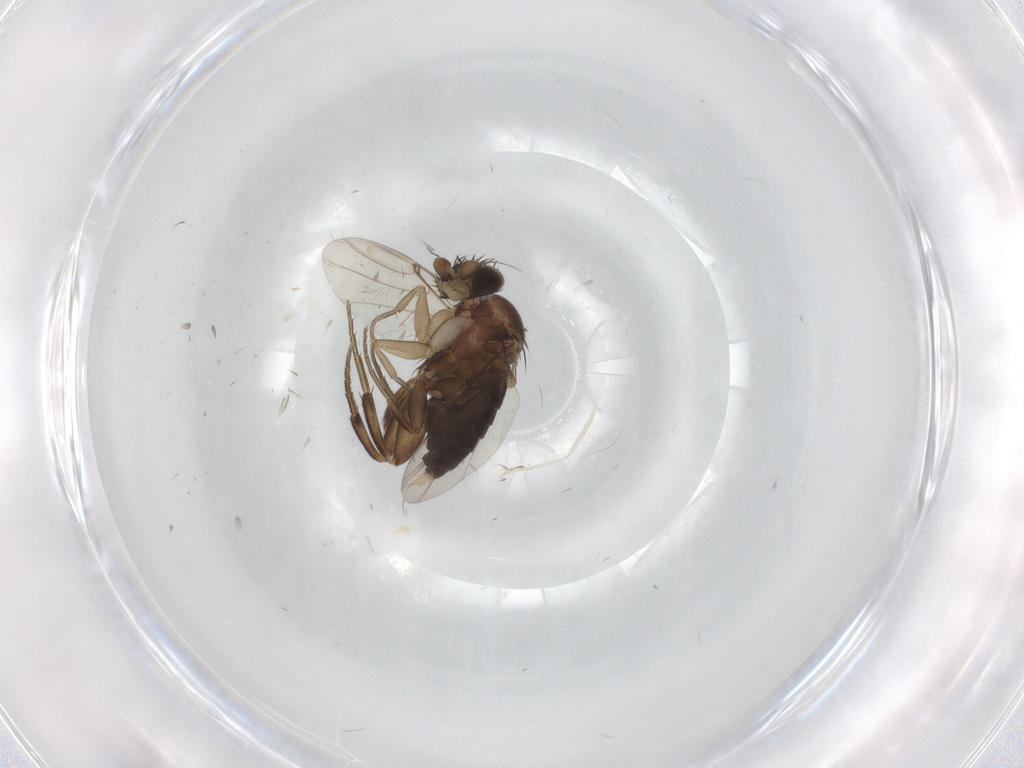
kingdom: Animalia
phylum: Arthropoda
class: Insecta
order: Diptera
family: Phoridae
